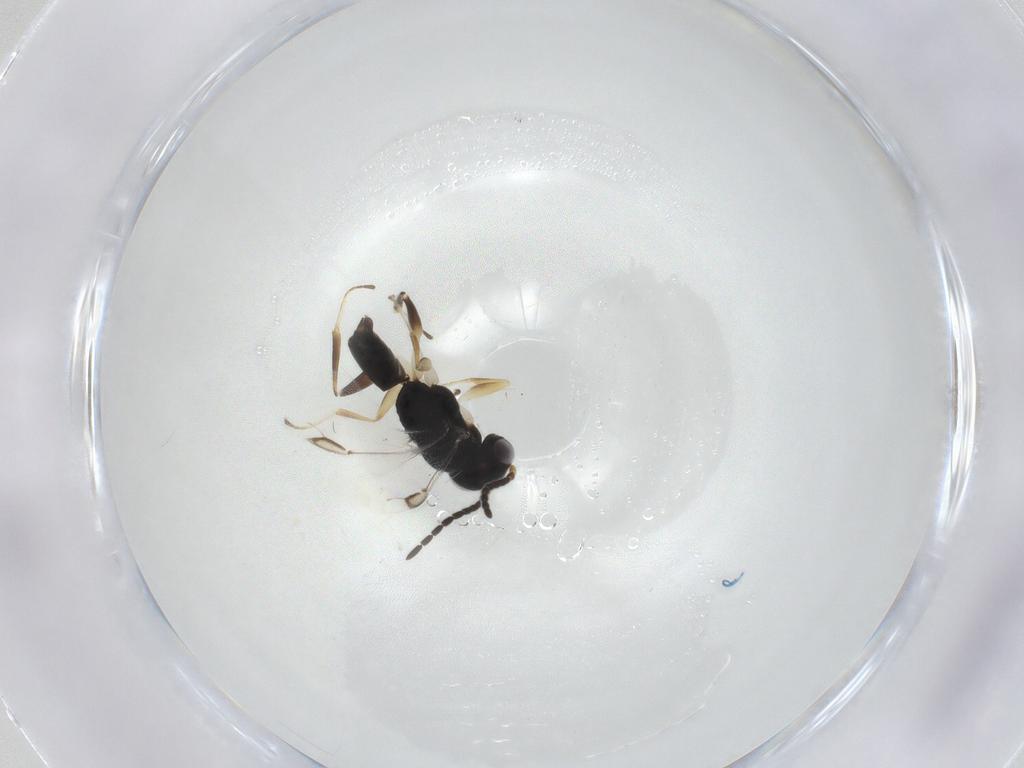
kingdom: Animalia
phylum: Arthropoda
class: Insecta
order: Hymenoptera
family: Dryinidae
